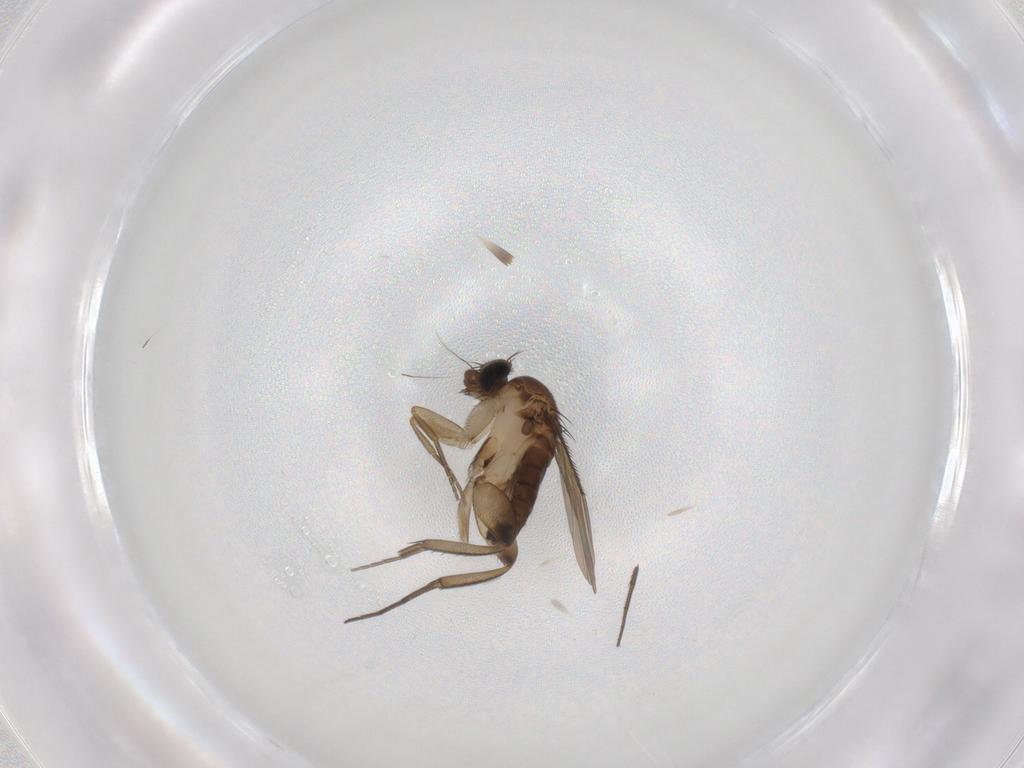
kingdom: Animalia
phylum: Arthropoda
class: Insecta
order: Diptera
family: Phoridae
